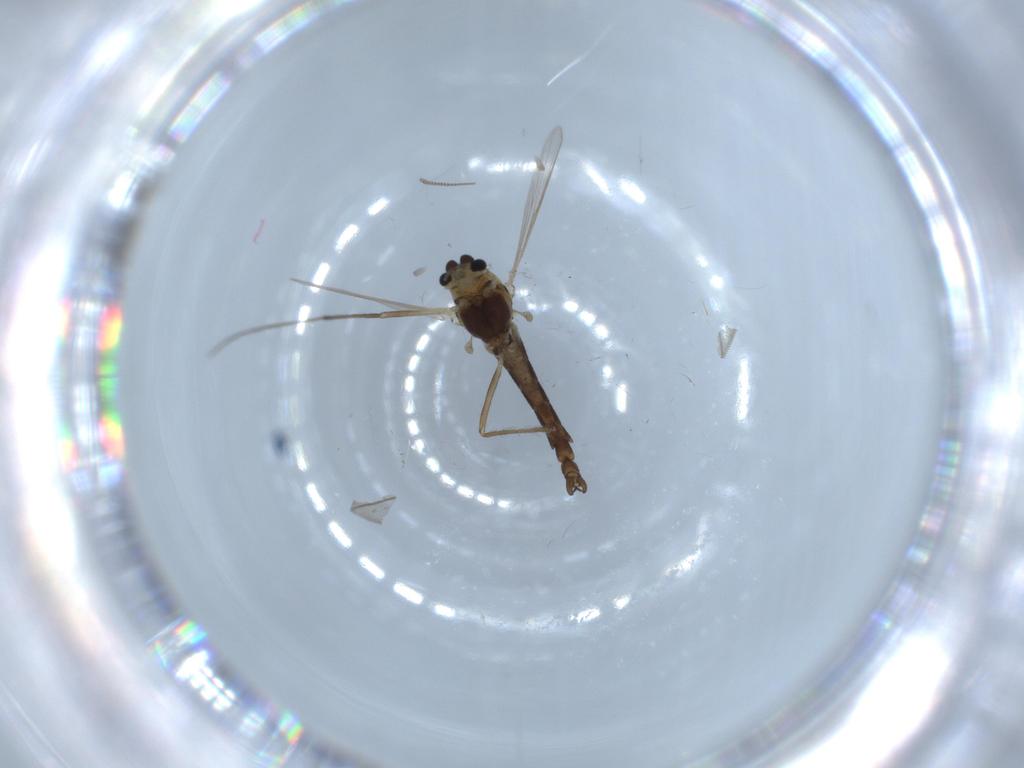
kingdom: Animalia
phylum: Arthropoda
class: Insecta
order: Diptera
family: Chironomidae
